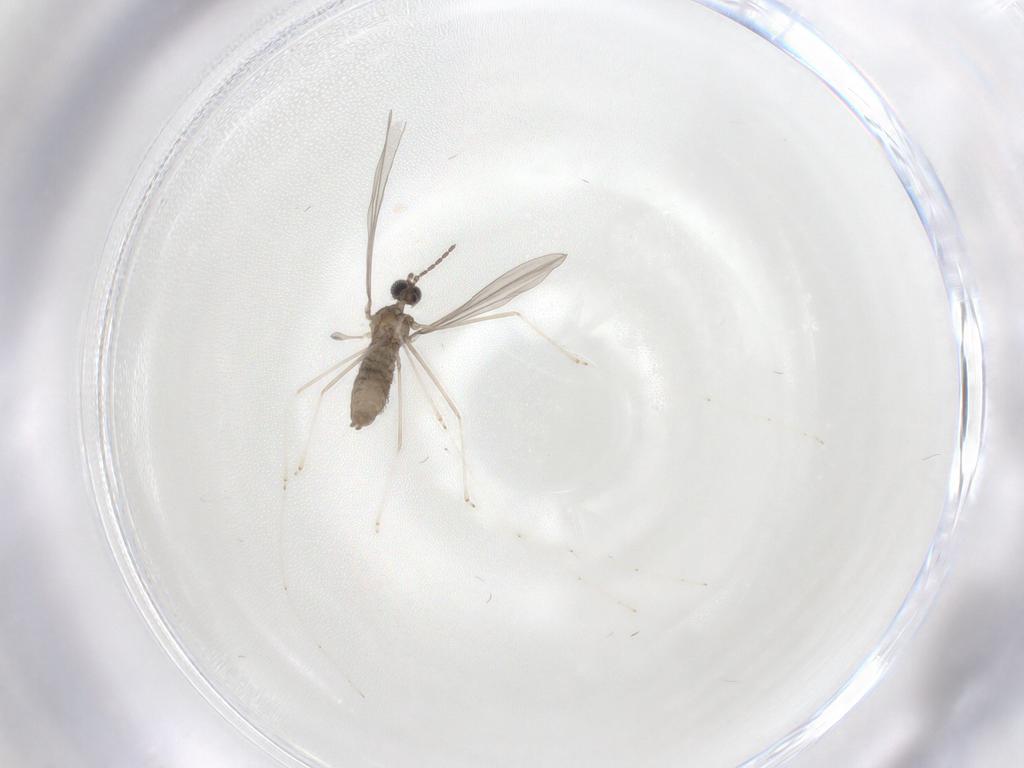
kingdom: Animalia
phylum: Arthropoda
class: Insecta
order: Diptera
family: Cecidomyiidae
